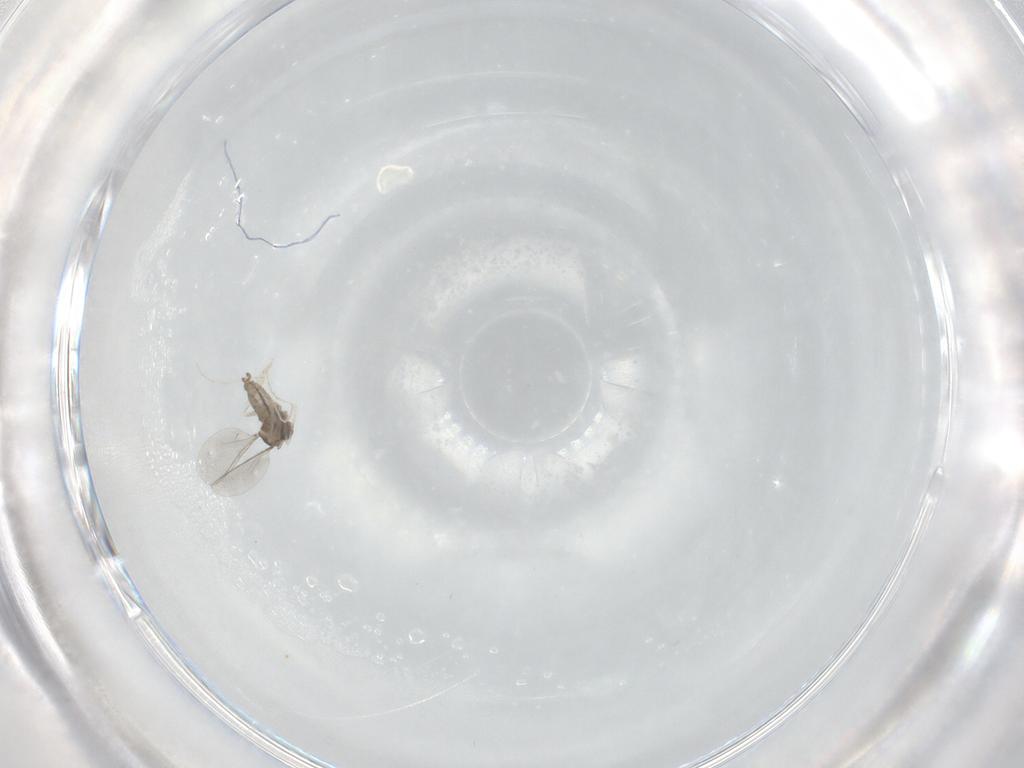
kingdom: Animalia
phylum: Arthropoda
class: Insecta
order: Diptera
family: Cecidomyiidae
